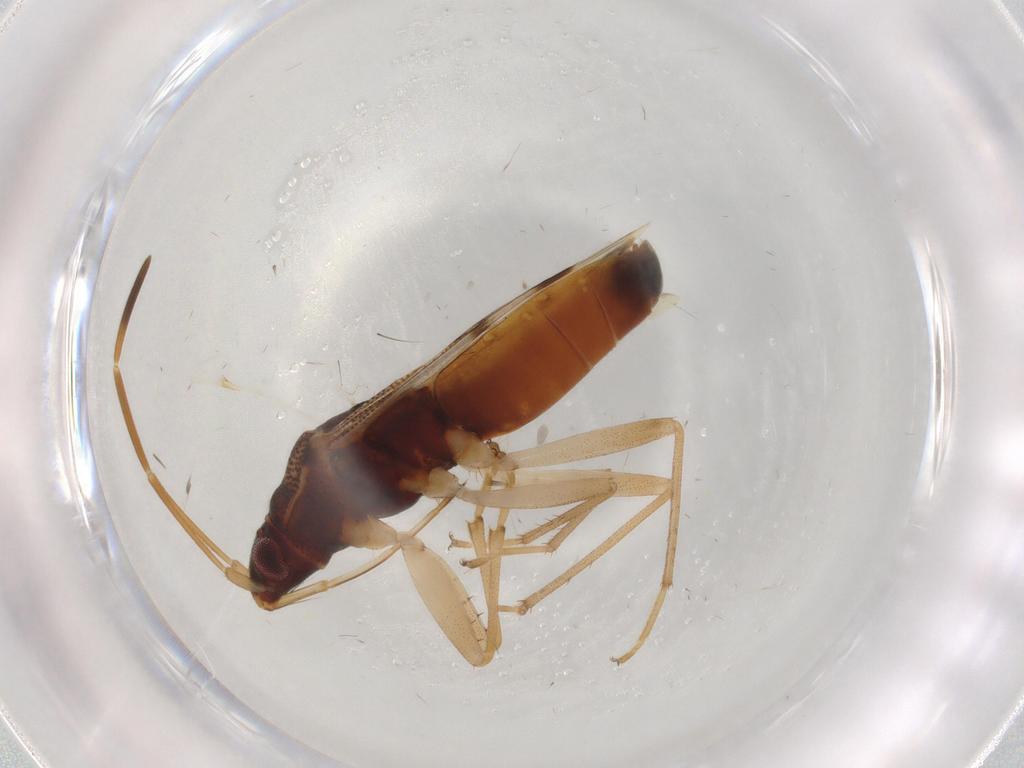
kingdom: Animalia
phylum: Arthropoda
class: Insecta
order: Hemiptera
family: Rhyparochromidae
